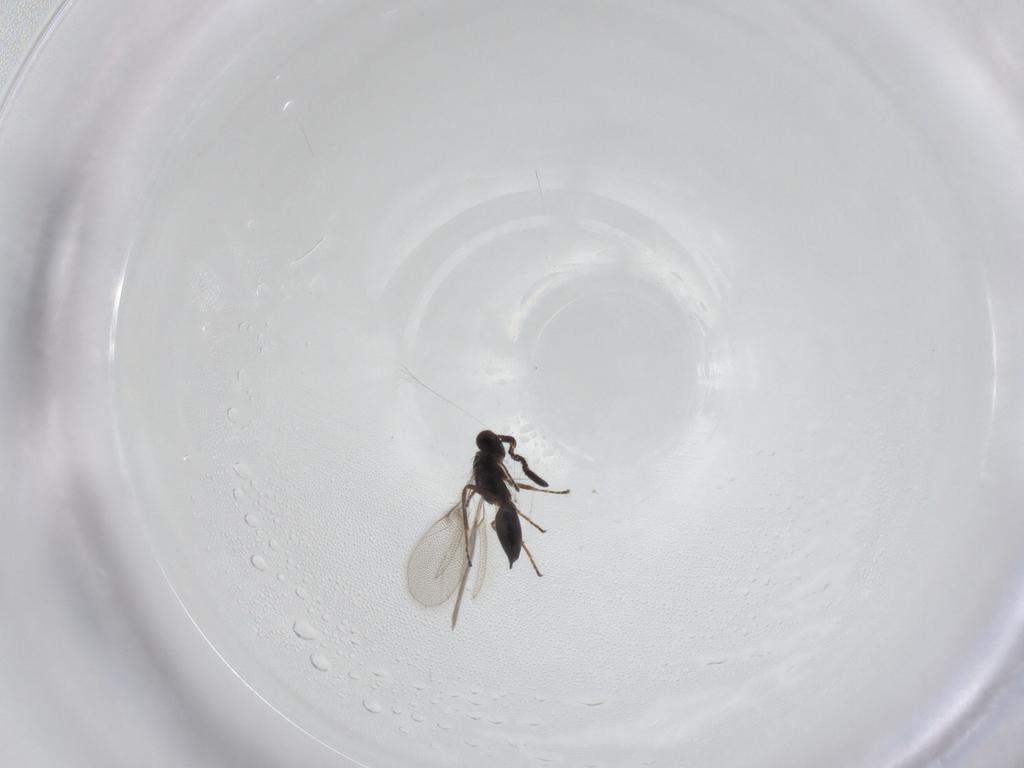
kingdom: Animalia
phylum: Arthropoda
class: Insecta
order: Hymenoptera
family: Mymaridae
